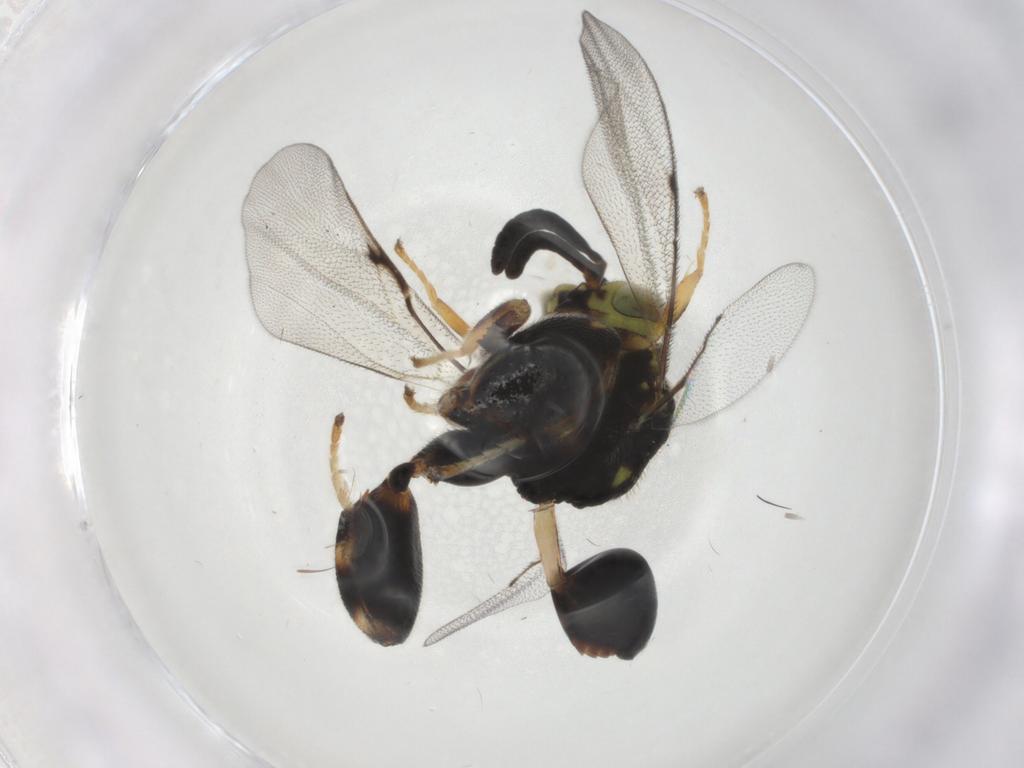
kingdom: Animalia
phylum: Arthropoda
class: Insecta
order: Hymenoptera
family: Chalcididae
